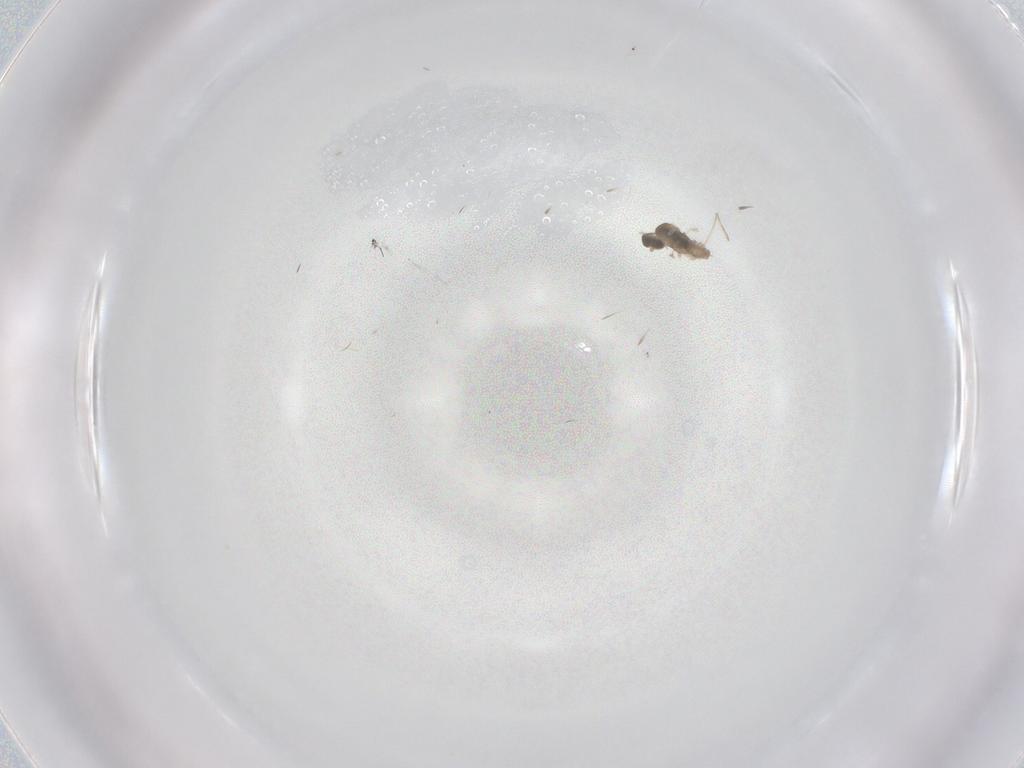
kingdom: Animalia
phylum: Arthropoda
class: Insecta
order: Diptera
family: Cecidomyiidae
